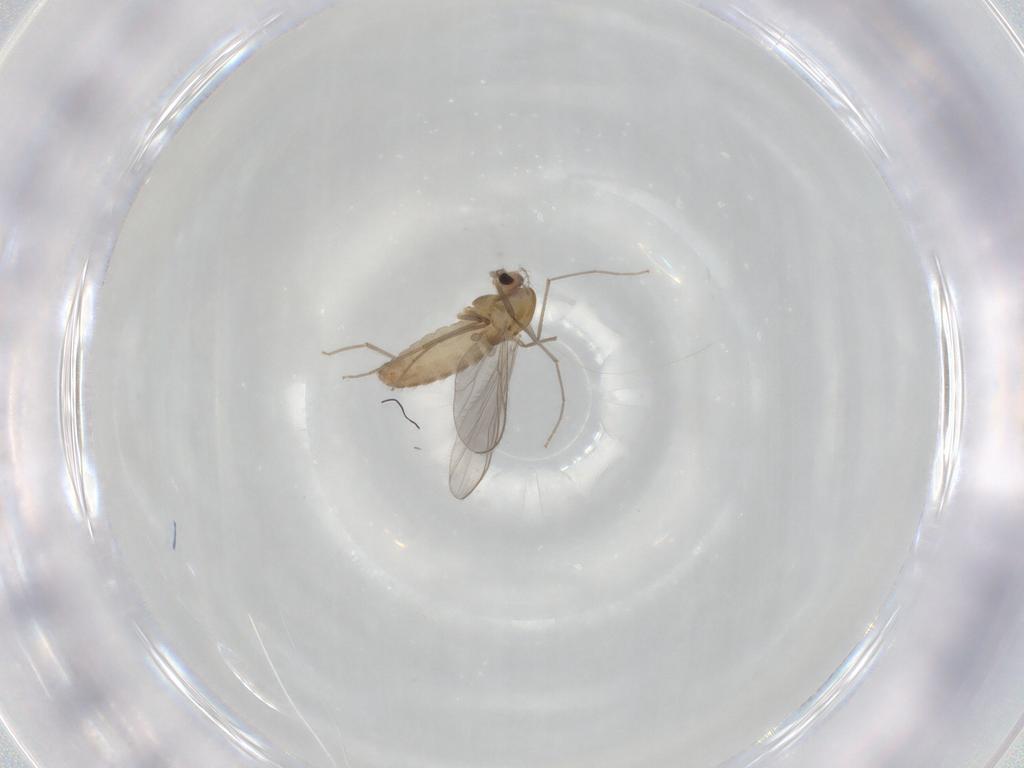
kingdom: Animalia
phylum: Arthropoda
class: Insecta
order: Diptera
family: Chironomidae
